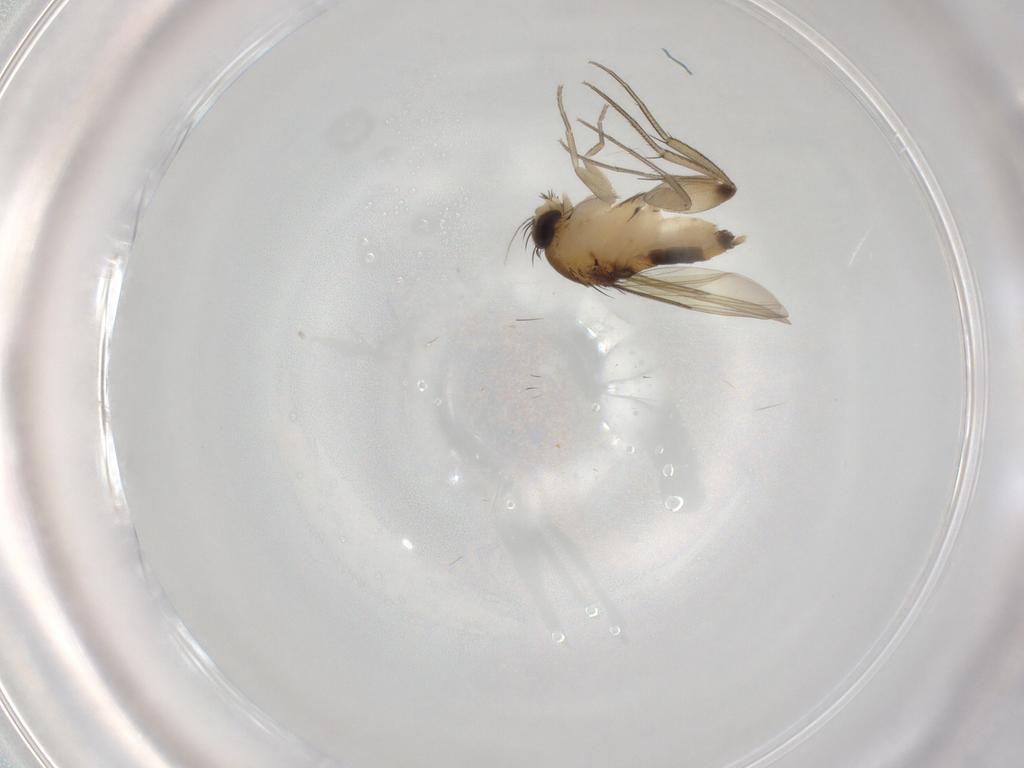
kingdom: Animalia
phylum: Arthropoda
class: Insecta
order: Diptera
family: Phoridae
